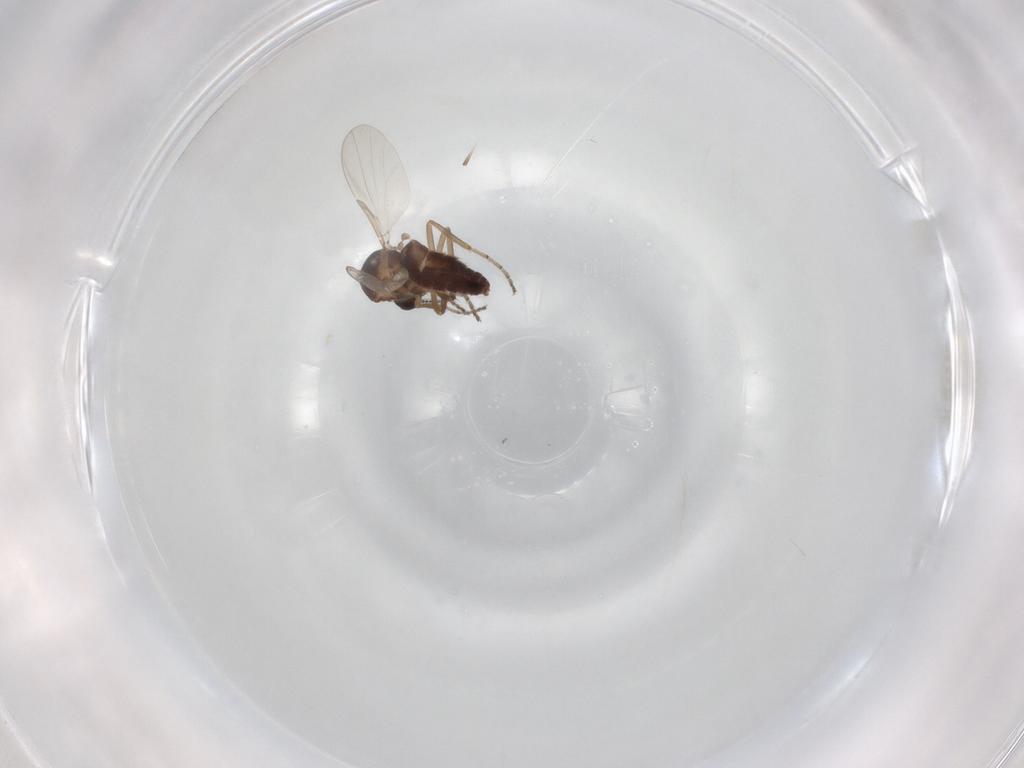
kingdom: Animalia
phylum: Arthropoda
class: Insecta
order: Diptera
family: Ceratopogonidae
